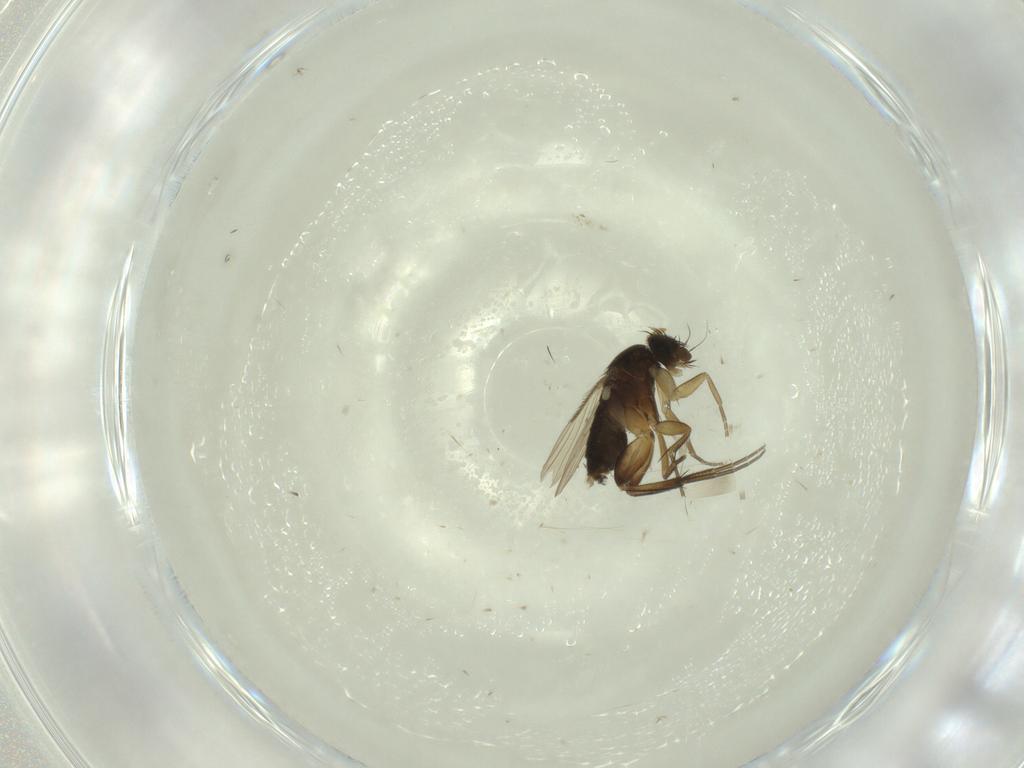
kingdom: Animalia
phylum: Arthropoda
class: Insecta
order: Diptera
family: Phoridae
